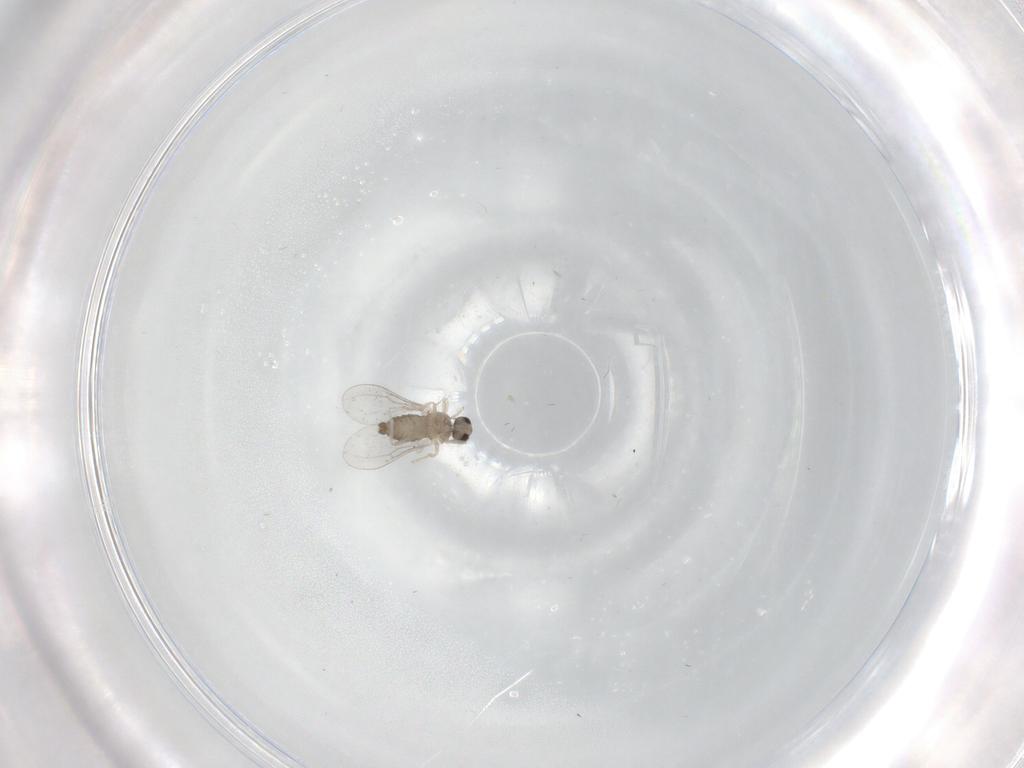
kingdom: Animalia
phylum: Arthropoda
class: Insecta
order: Diptera
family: Cecidomyiidae
